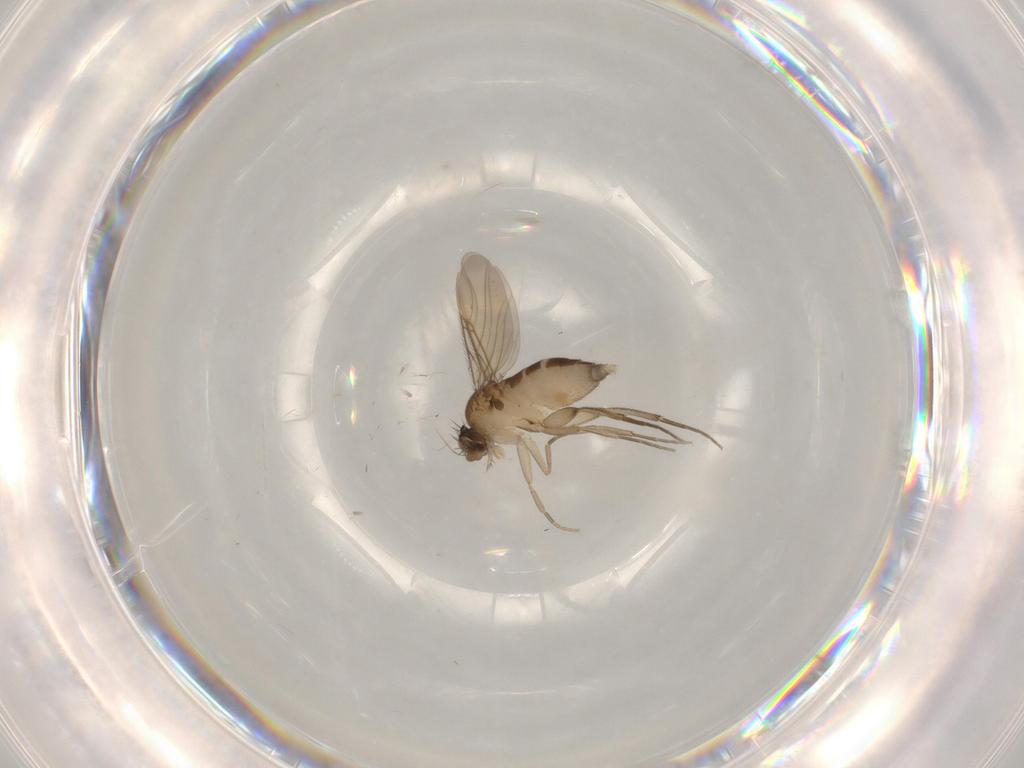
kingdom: Animalia
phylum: Arthropoda
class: Insecta
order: Diptera
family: Phoridae
